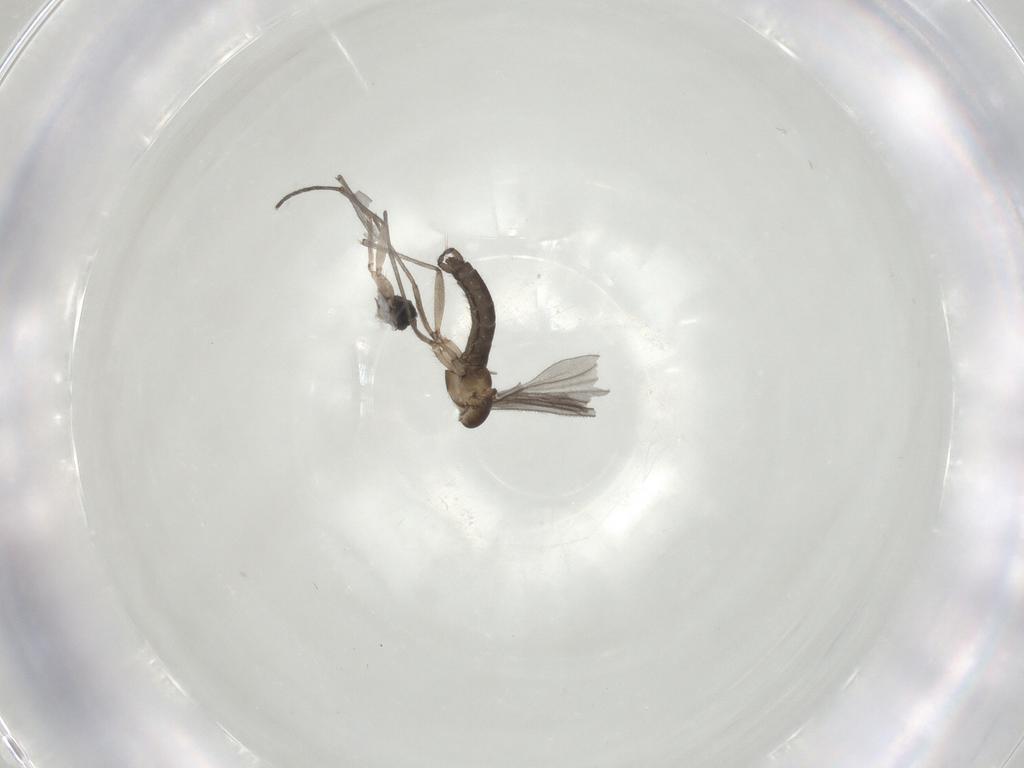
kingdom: Animalia
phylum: Arthropoda
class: Insecta
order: Diptera
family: Sciaridae
